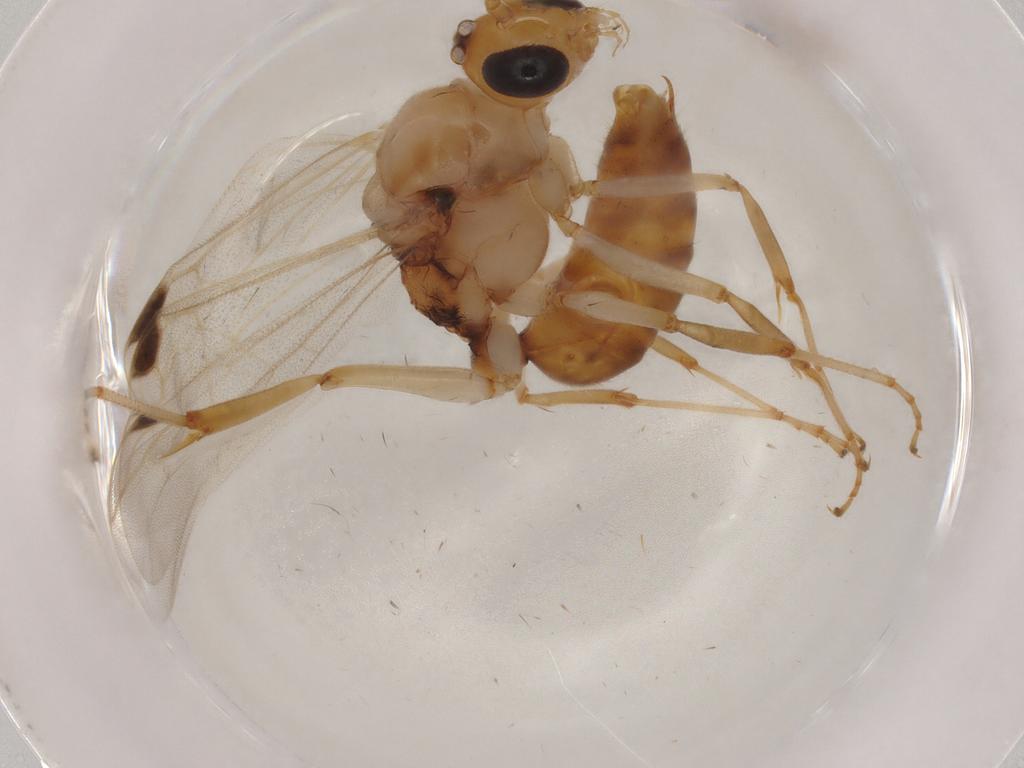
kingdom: Animalia
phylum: Arthropoda
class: Insecta
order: Hymenoptera
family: Formicidae
